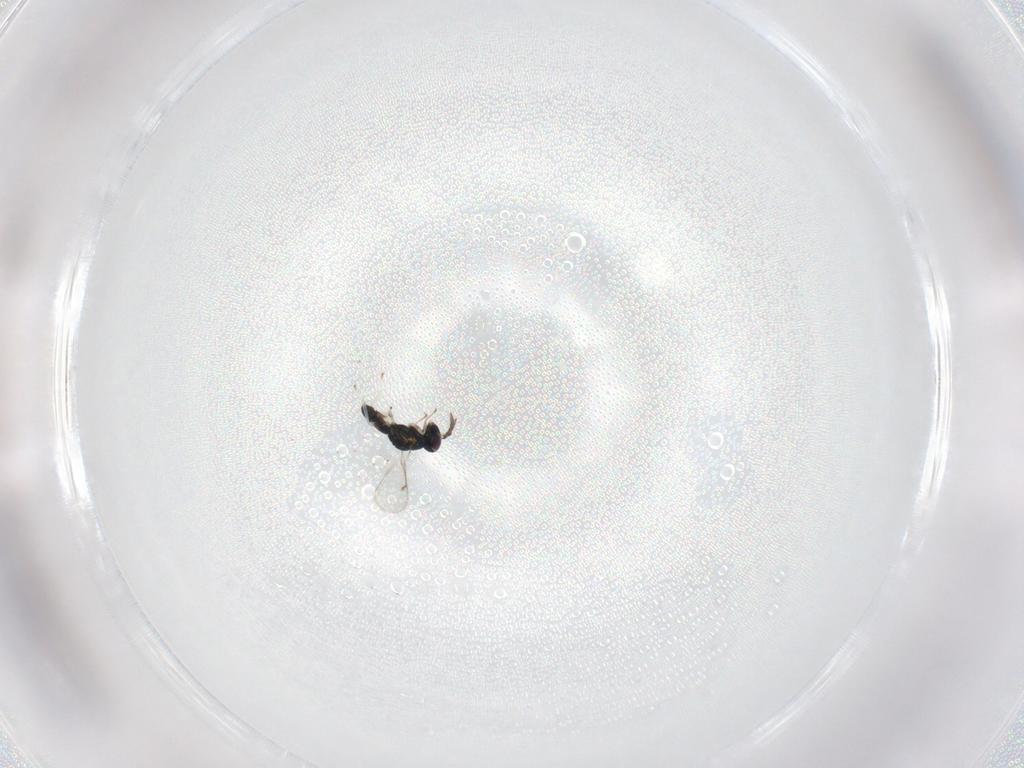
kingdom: Animalia
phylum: Arthropoda
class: Insecta
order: Hymenoptera
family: Eulophidae
